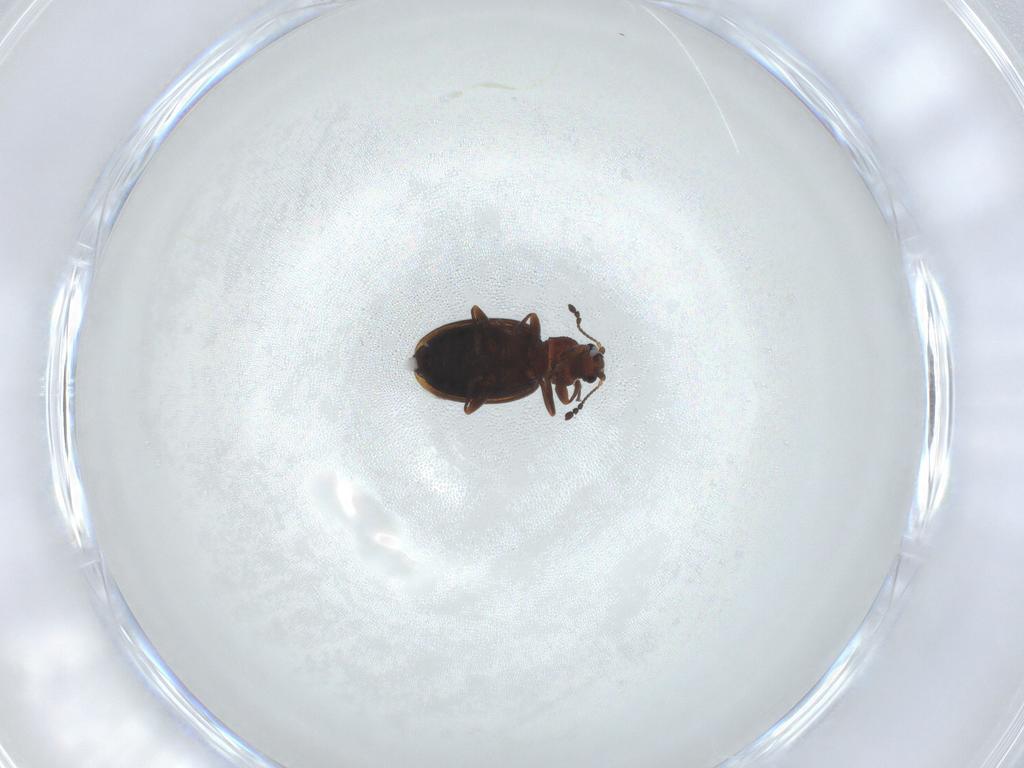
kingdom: Animalia
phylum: Arthropoda
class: Insecta
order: Coleoptera
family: Latridiidae
